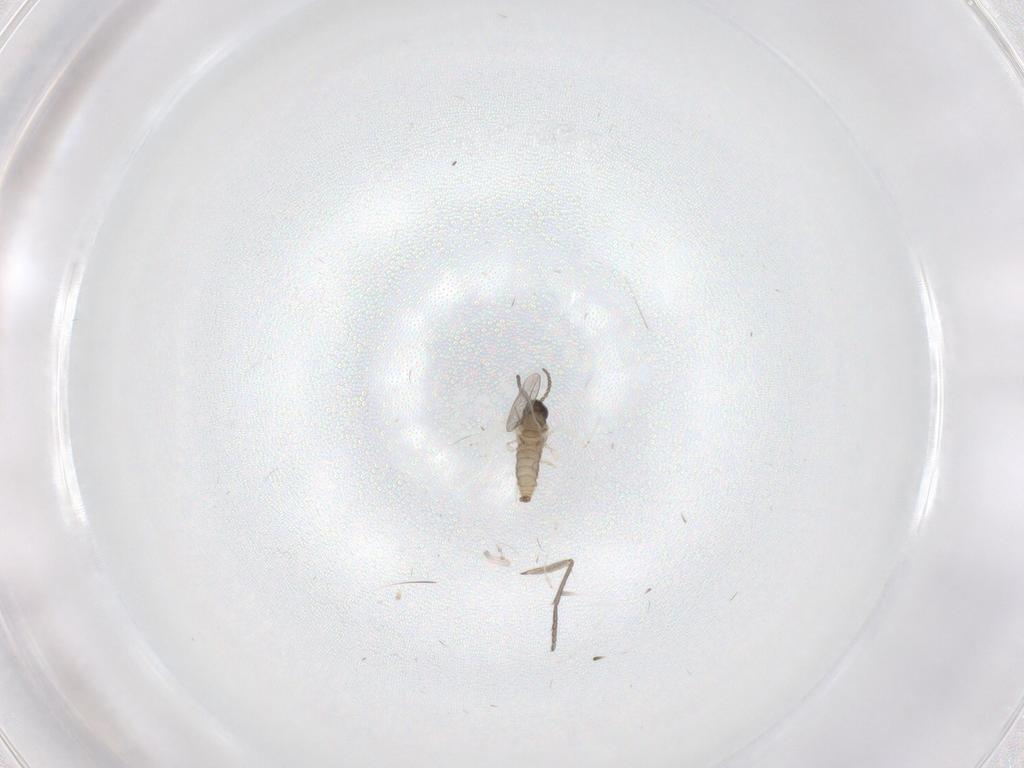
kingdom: Animalia
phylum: Arthropoda
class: Insecta
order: Diptera
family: Sciaridae
